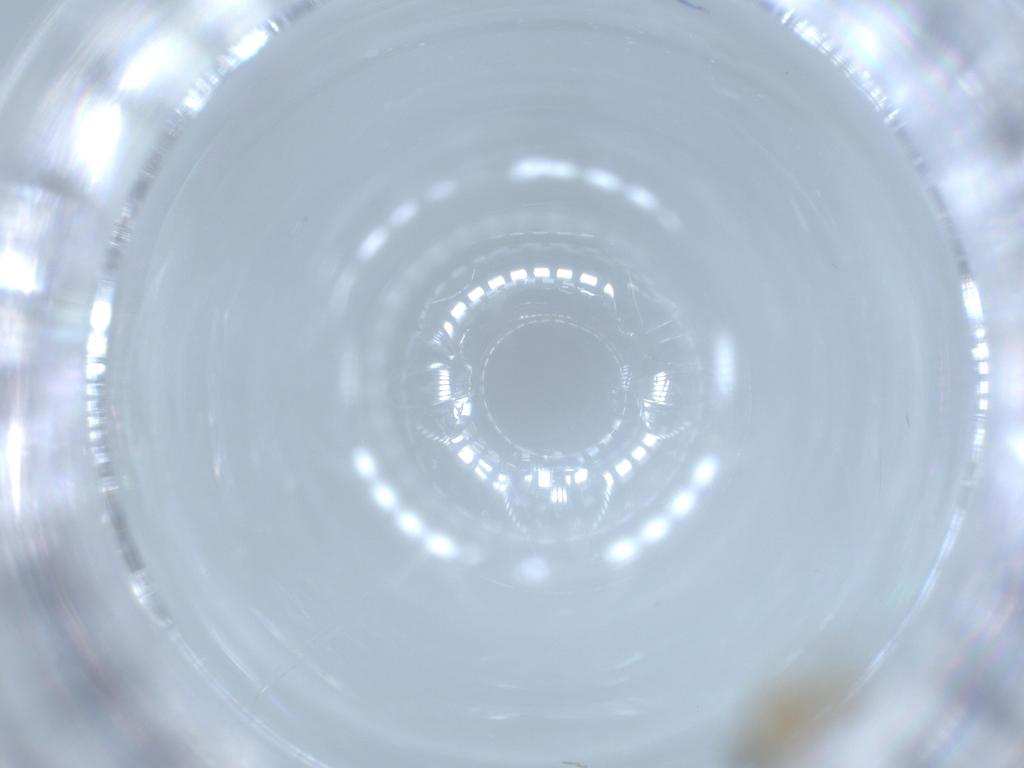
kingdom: Animalia
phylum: Arthropoda
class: Insecta
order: Diptera
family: Cecidomyiidae
